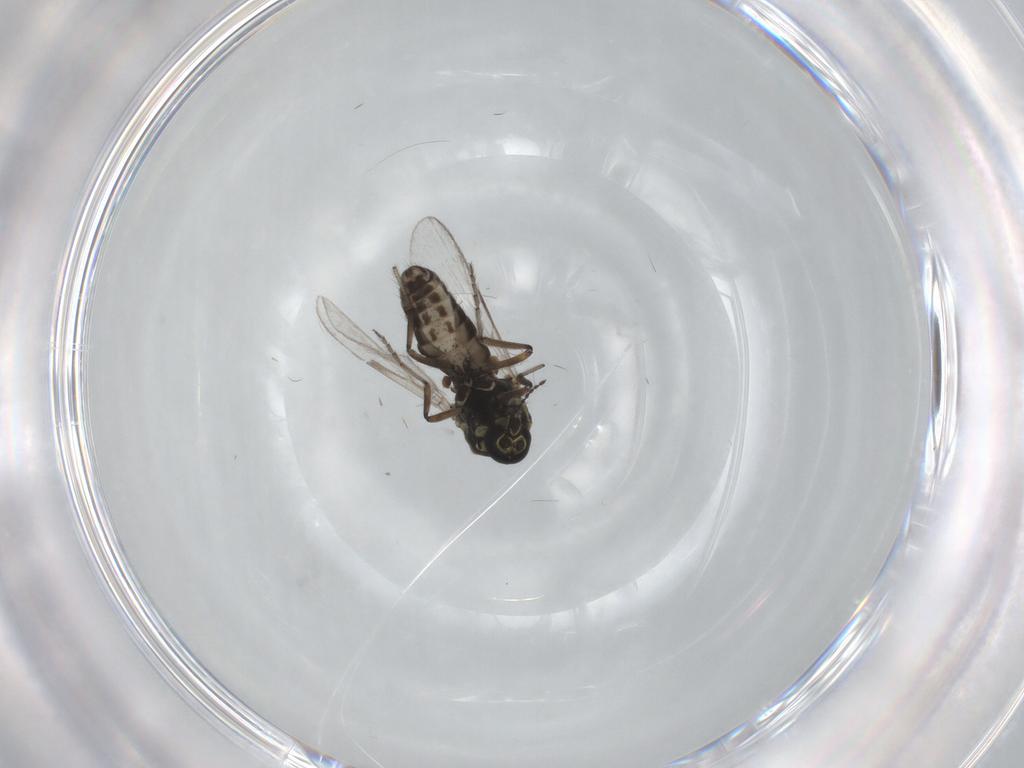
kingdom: Animalia
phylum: Arthropoda
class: Insecta
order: Diptera
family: Ceratopogonidae
